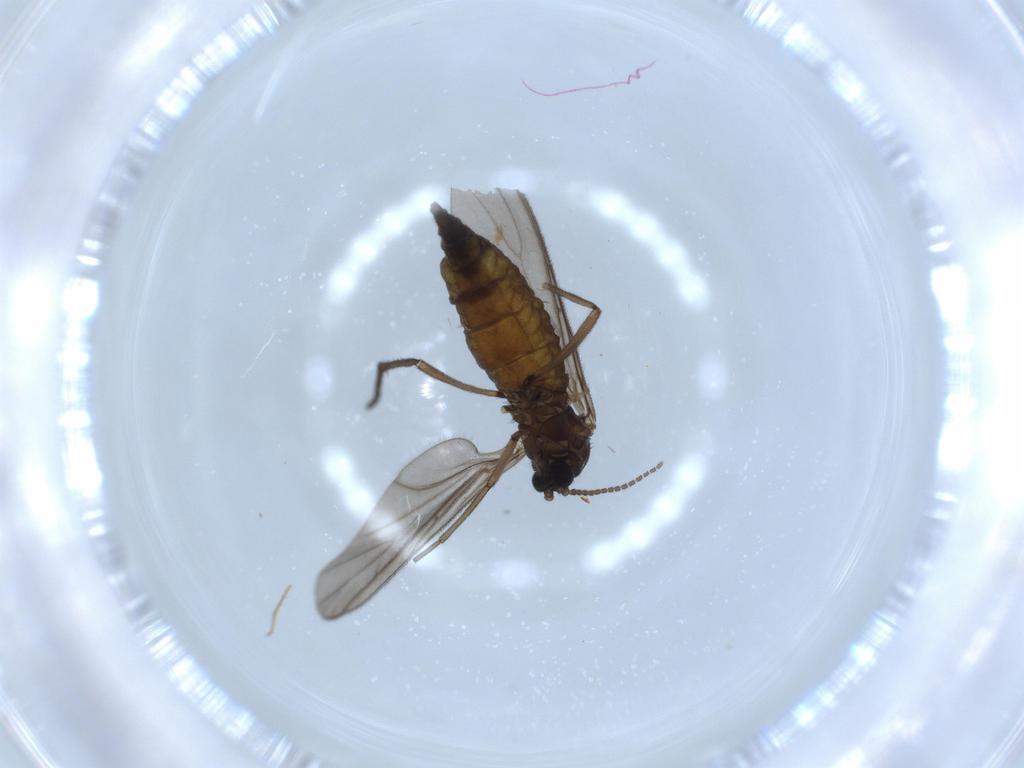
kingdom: Animalia
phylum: Arthropoda
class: Insecta
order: Diptera
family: Sciaridae
